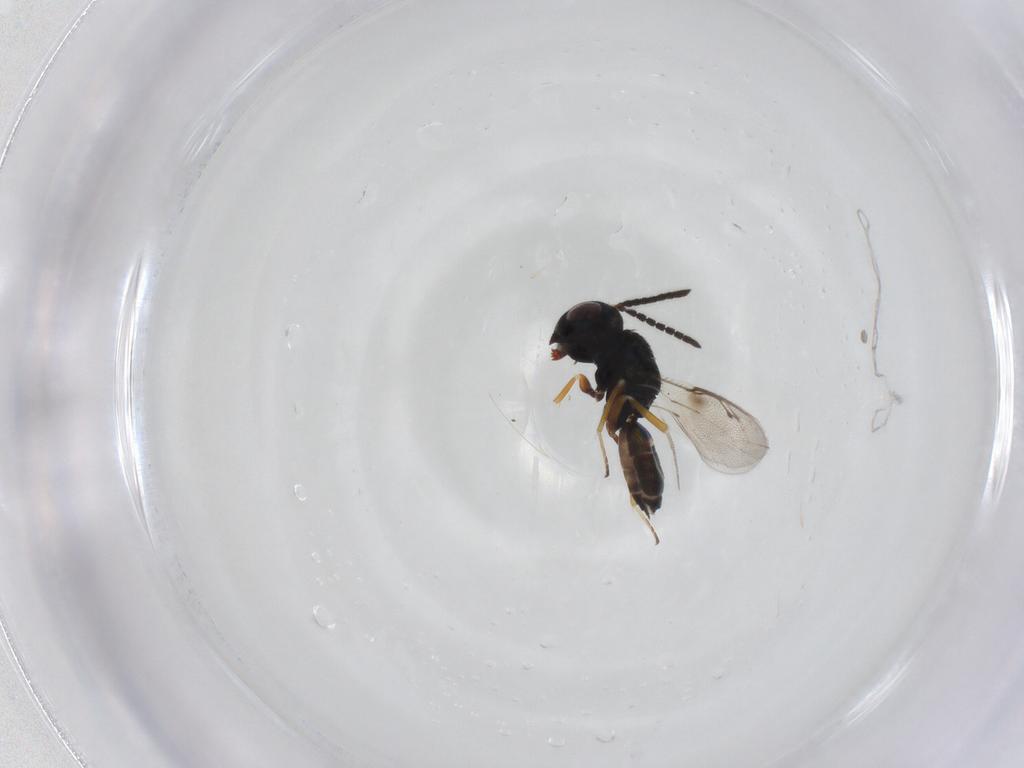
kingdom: Animalia
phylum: Arthropoda
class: Insecta
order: Hymenoptera
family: Pteromalidae
